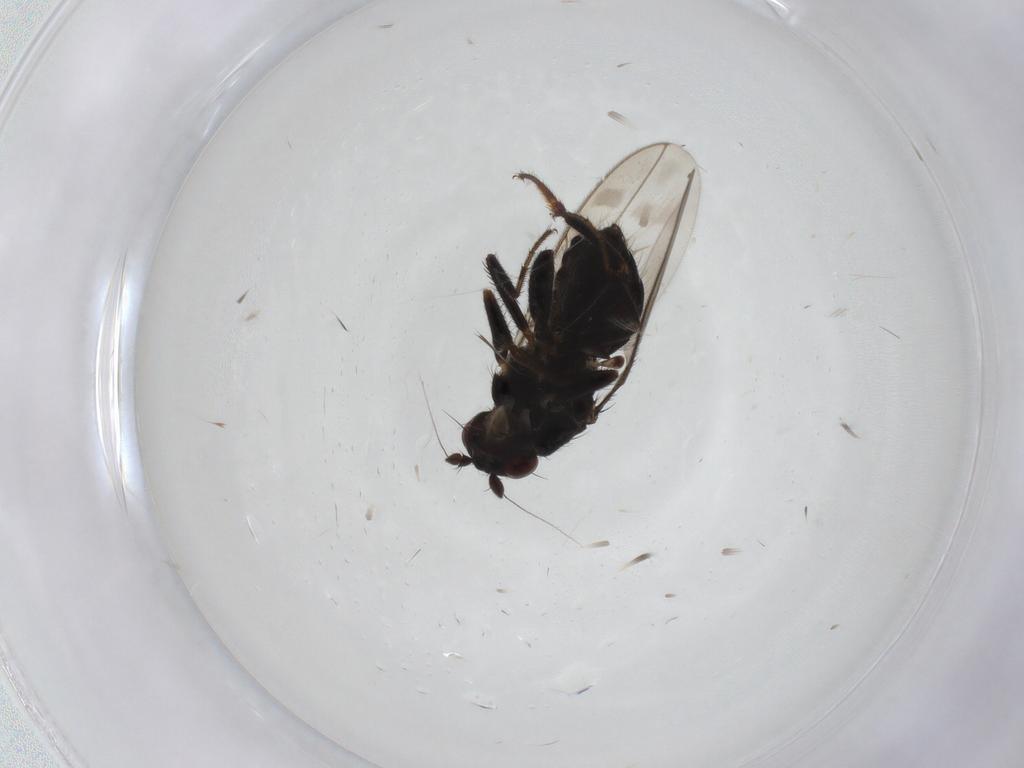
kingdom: Animalia
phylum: Arthropoda
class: Insecta
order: Diptera
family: Sphaeroceridae
